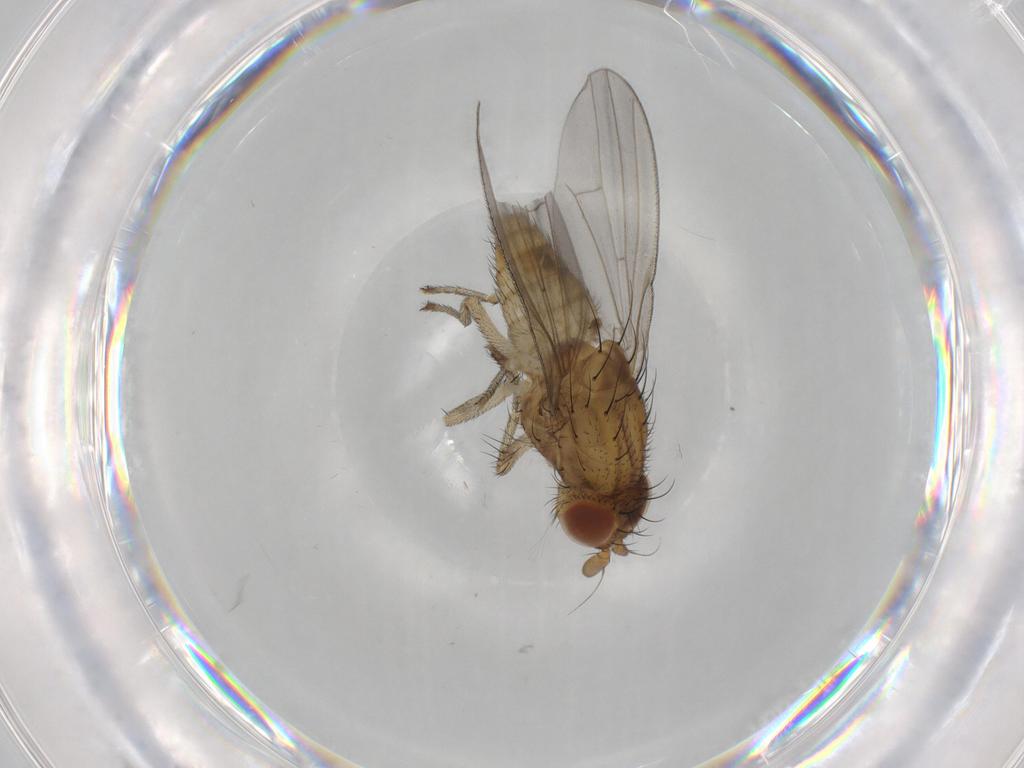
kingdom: Animalia
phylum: Arthropoda
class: Insecta
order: Diptera
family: Lauxaniidae
